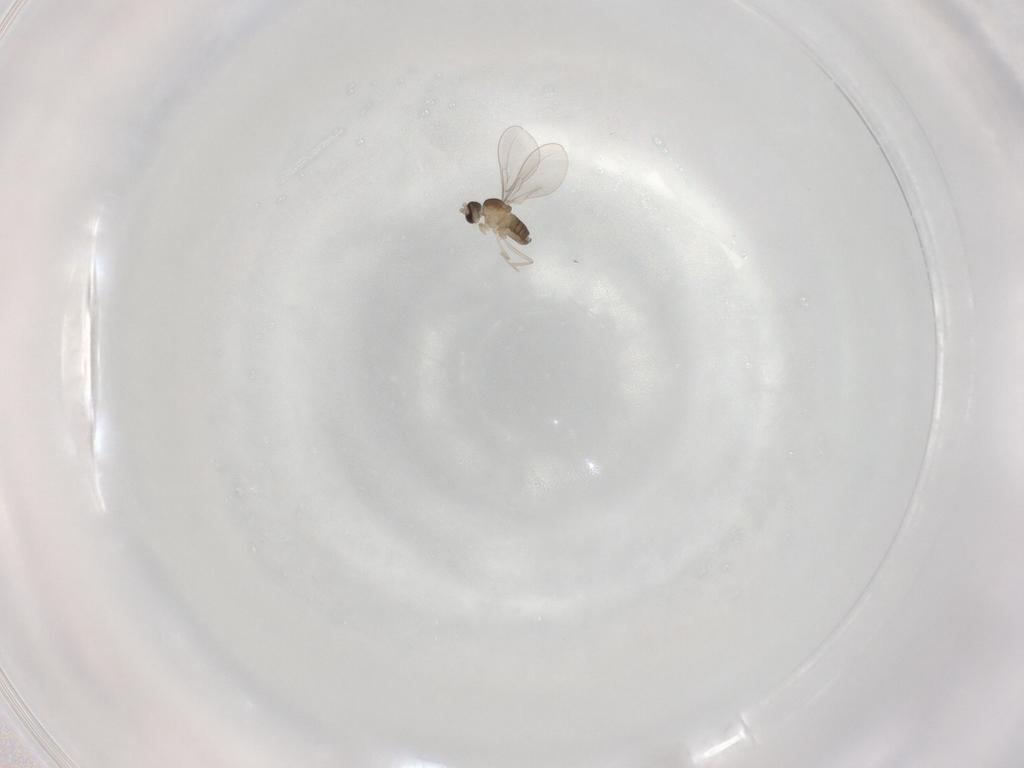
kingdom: Animalia
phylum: Arthropoda
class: Insecta
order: Diptera
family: Cecidomyiidae
